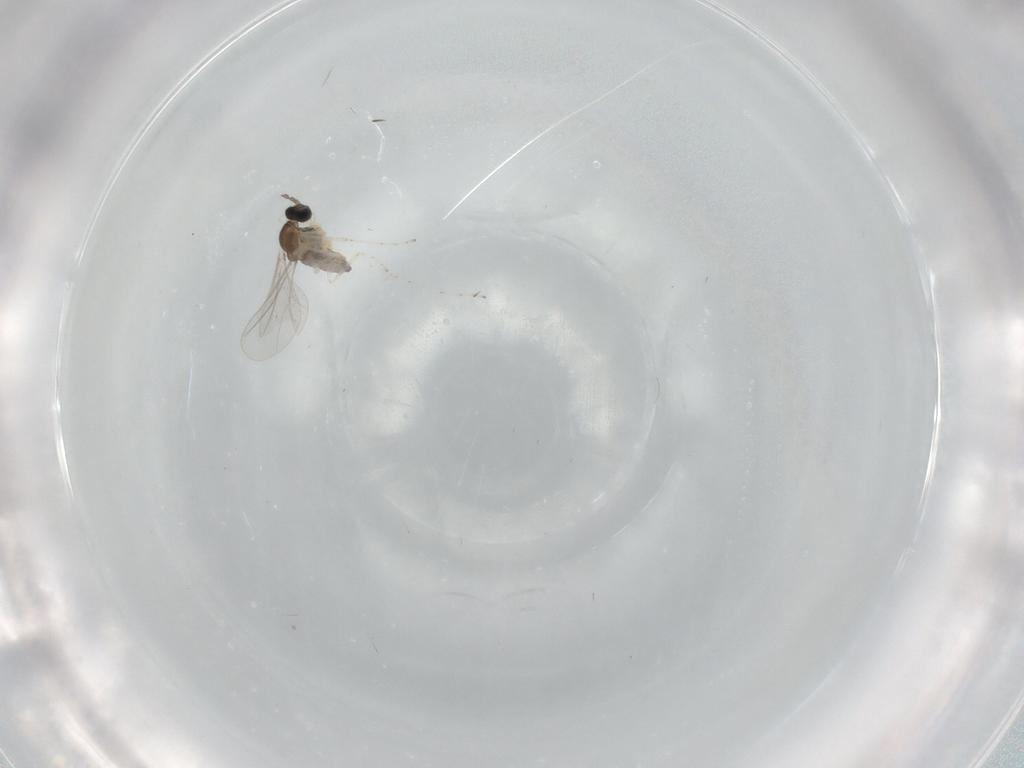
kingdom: Animalia
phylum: Arthropoda
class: Insecta
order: Diptera
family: Cecidomyiidae
